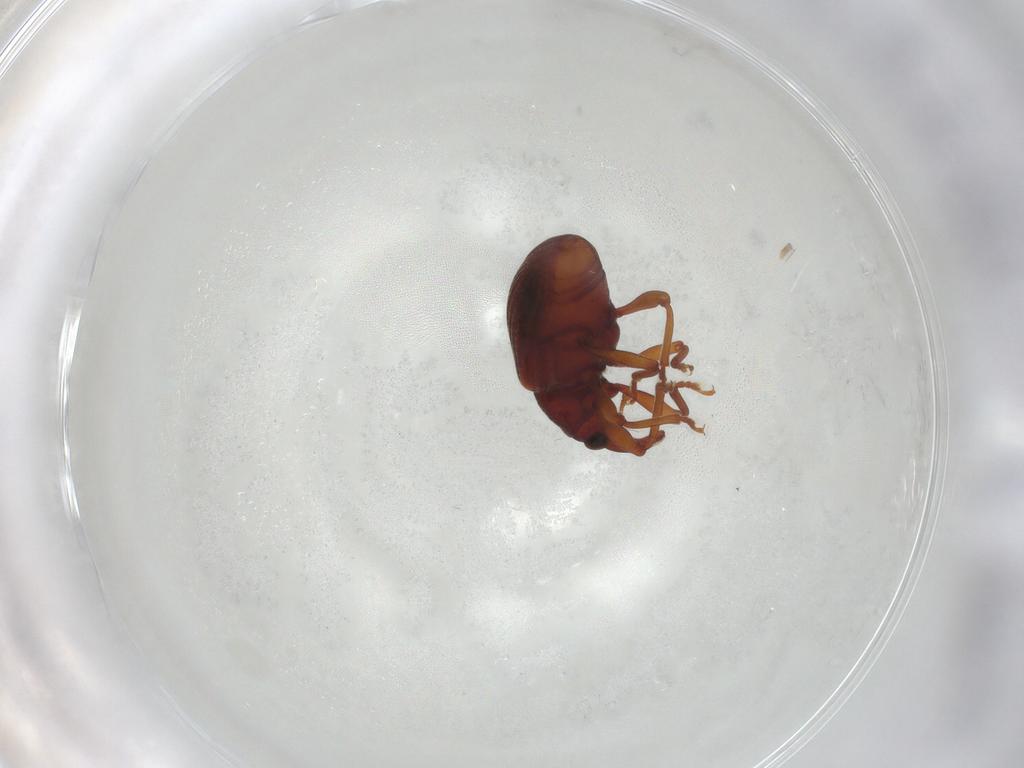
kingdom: Animalia
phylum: Arthropoda
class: Insecta
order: Coleoptera
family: Curculionidae
